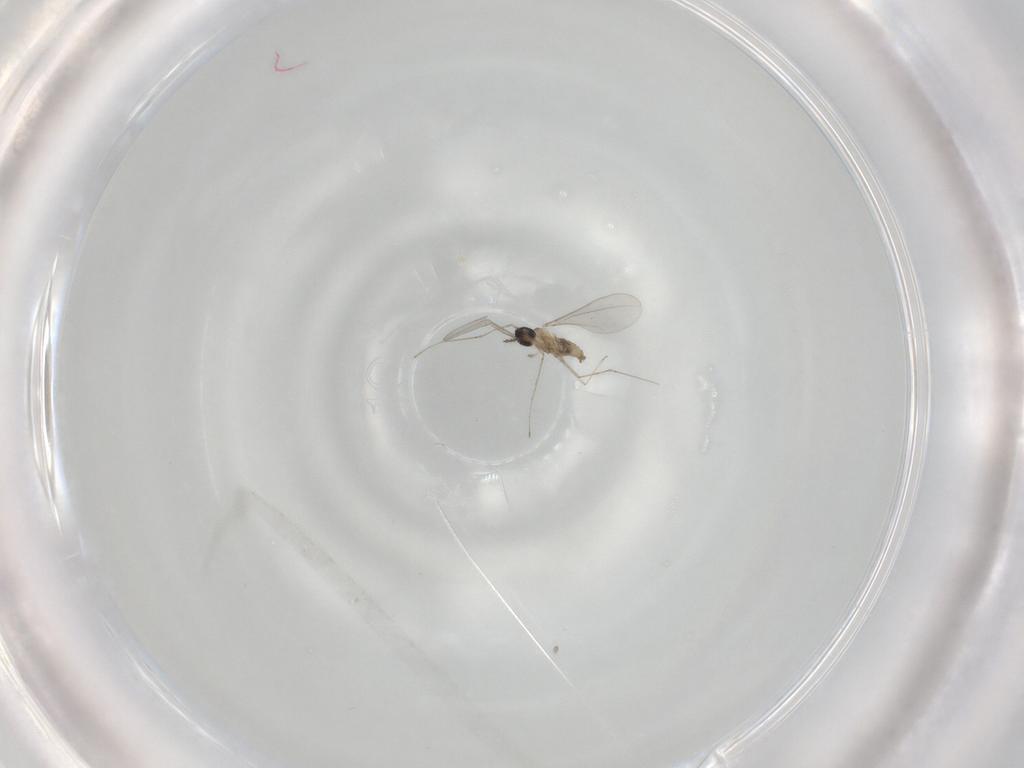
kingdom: Animalia
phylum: Arthropoda
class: Insecta
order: Diptera
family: Cecidomyiidae
